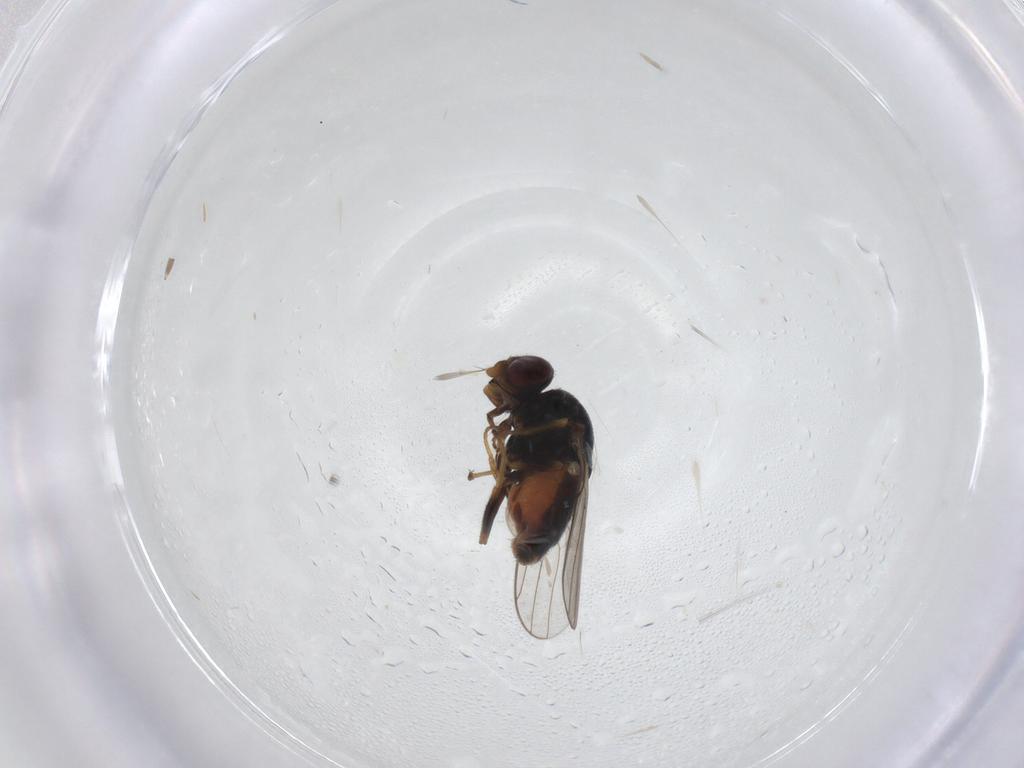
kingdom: Animalia
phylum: Arthropoda
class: Insecta
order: Diptera
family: Chloropidae
